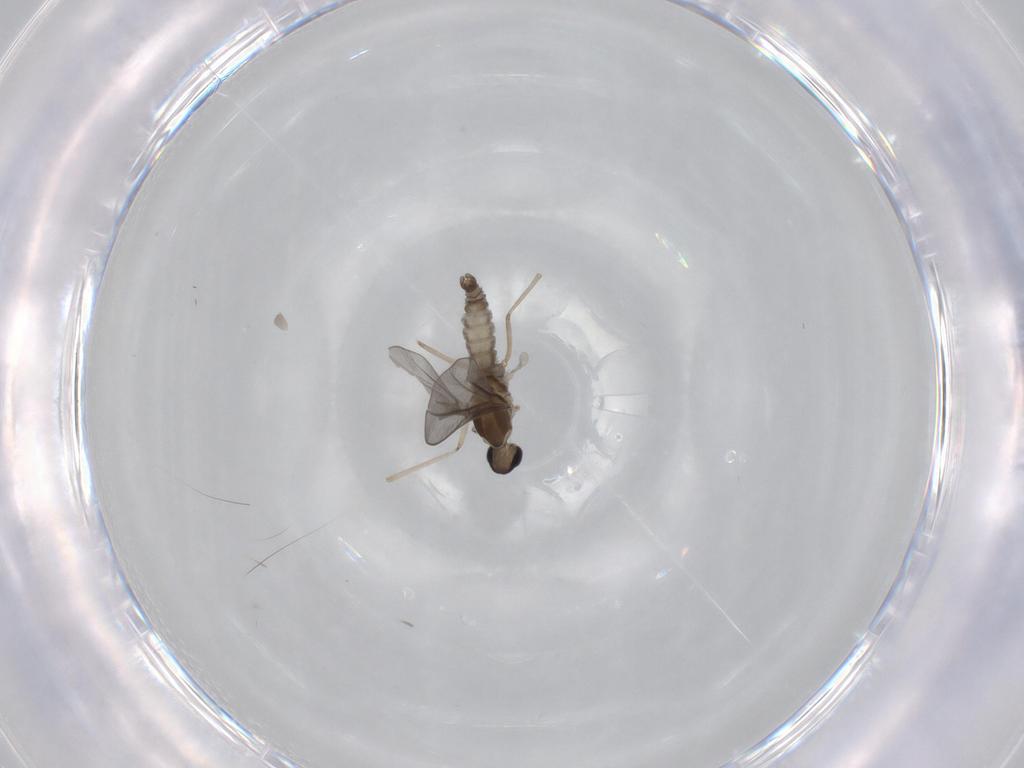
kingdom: Animalia
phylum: Arthropoda
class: Insecta
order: Diptera
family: Cecidomyiidae
